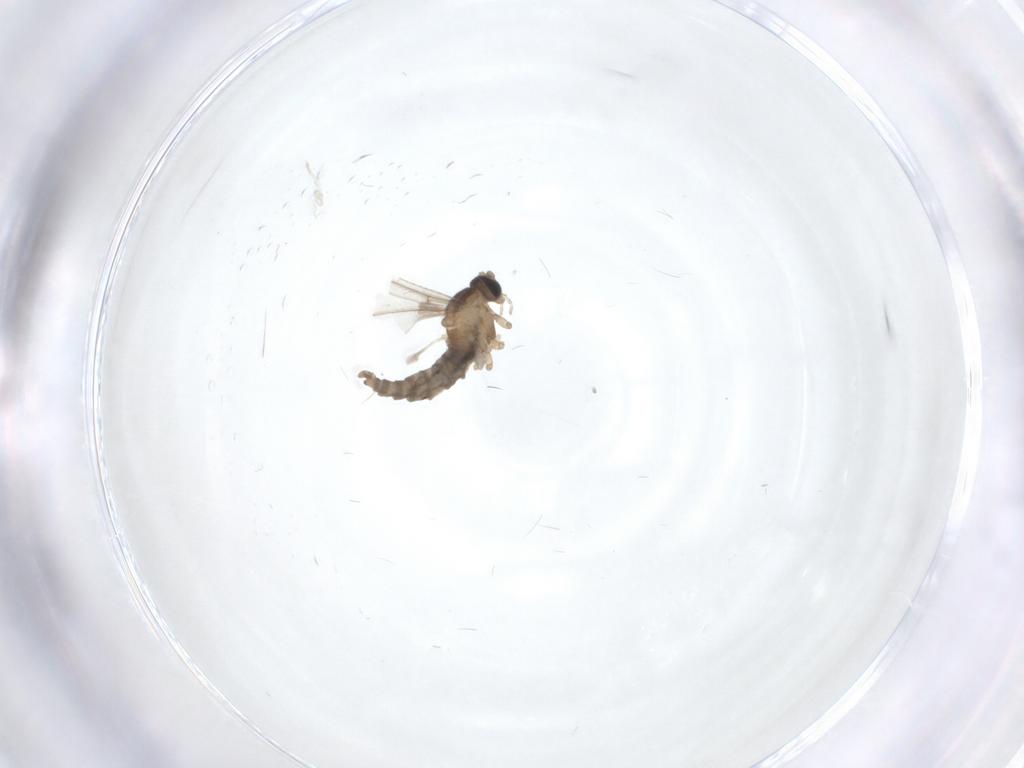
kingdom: Animalia
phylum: Arthropoda
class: Insecta
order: Diptera
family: Cecidomyiidae
